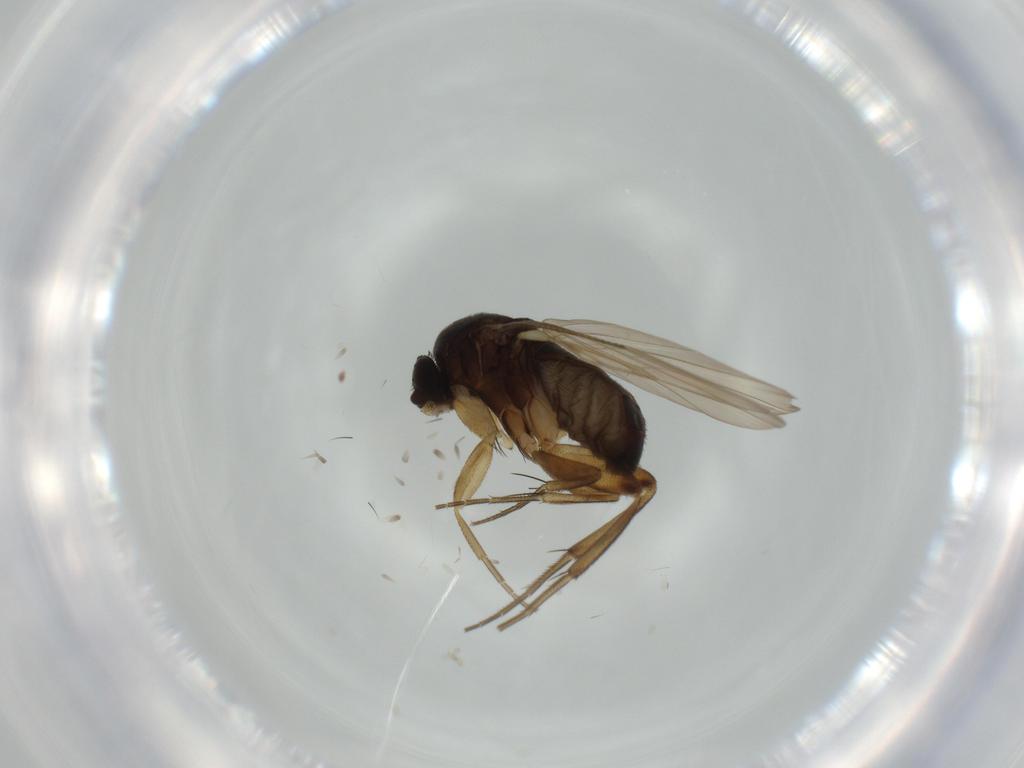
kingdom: Animalia
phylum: Arthropoda
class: Insecta
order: Diptera
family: Phoridae
